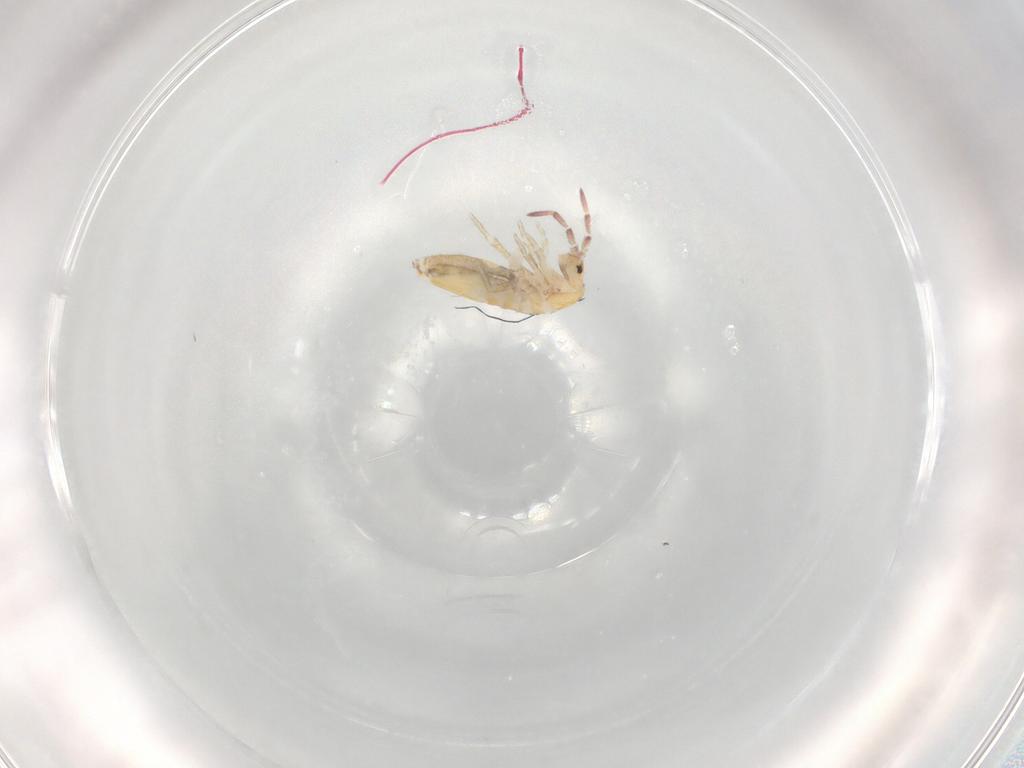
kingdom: Animalia
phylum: Arthropoda
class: Collembola
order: Entomobryomorpha
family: Entomobryidae
